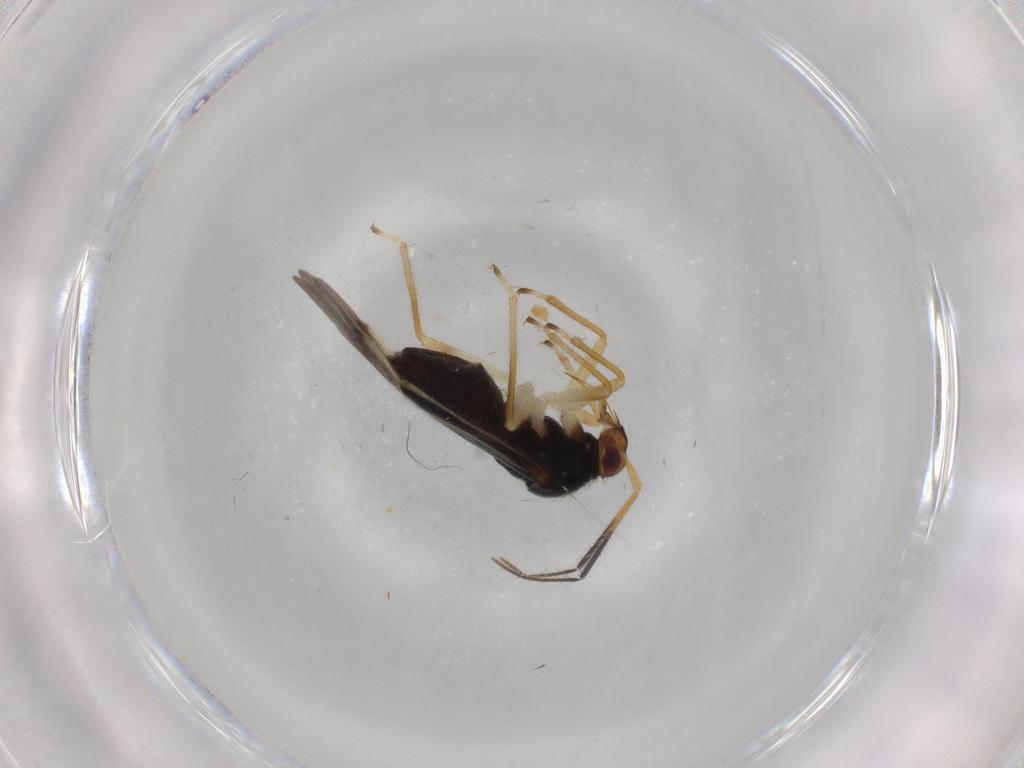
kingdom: Animalia
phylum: Arthropoda
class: Insecta
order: Hemiptera
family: Miridae
